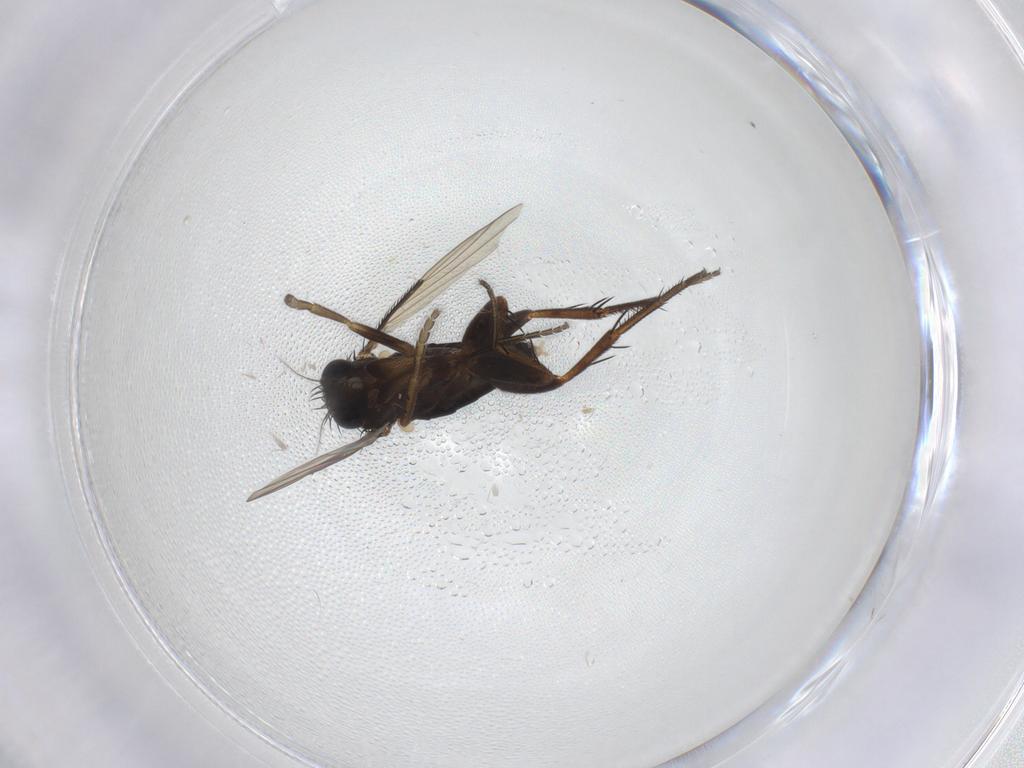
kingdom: Animalia
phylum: Arthropoda
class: Insecta
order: Diptera
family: Phoridae
